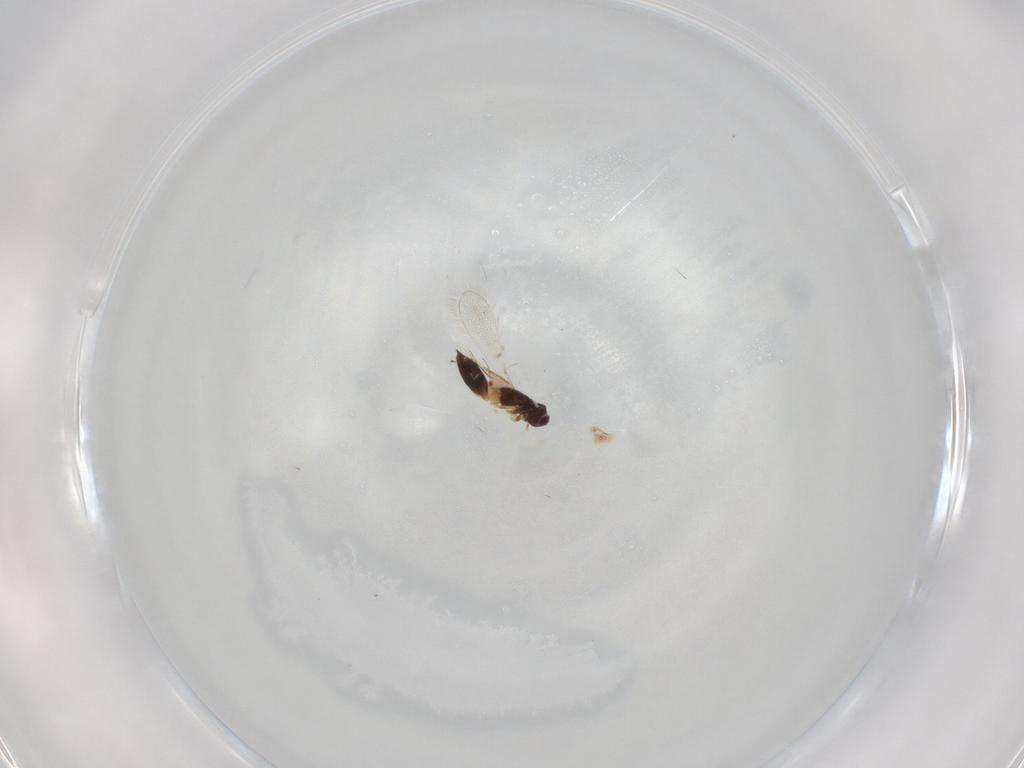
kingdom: Animalia
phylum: Arthropoda
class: Insecta
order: Hymenoptera
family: Mymaridae
